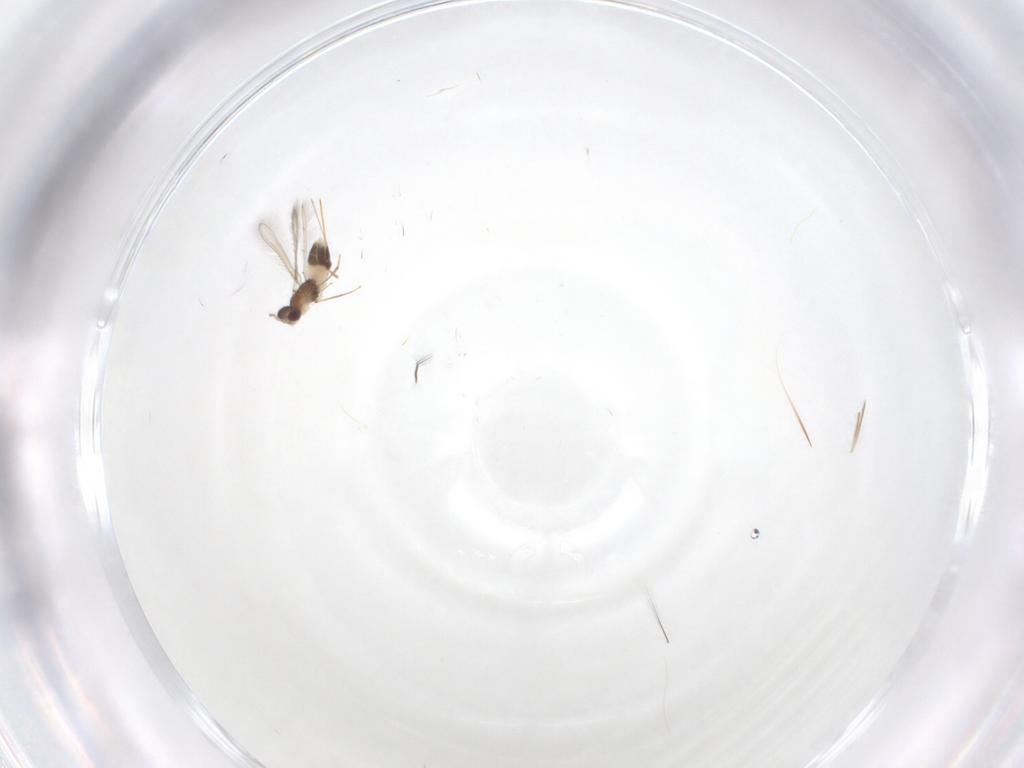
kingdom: Animalia
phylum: Arthropoda
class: Insecta
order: Hymenoptera
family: Mymaridae
